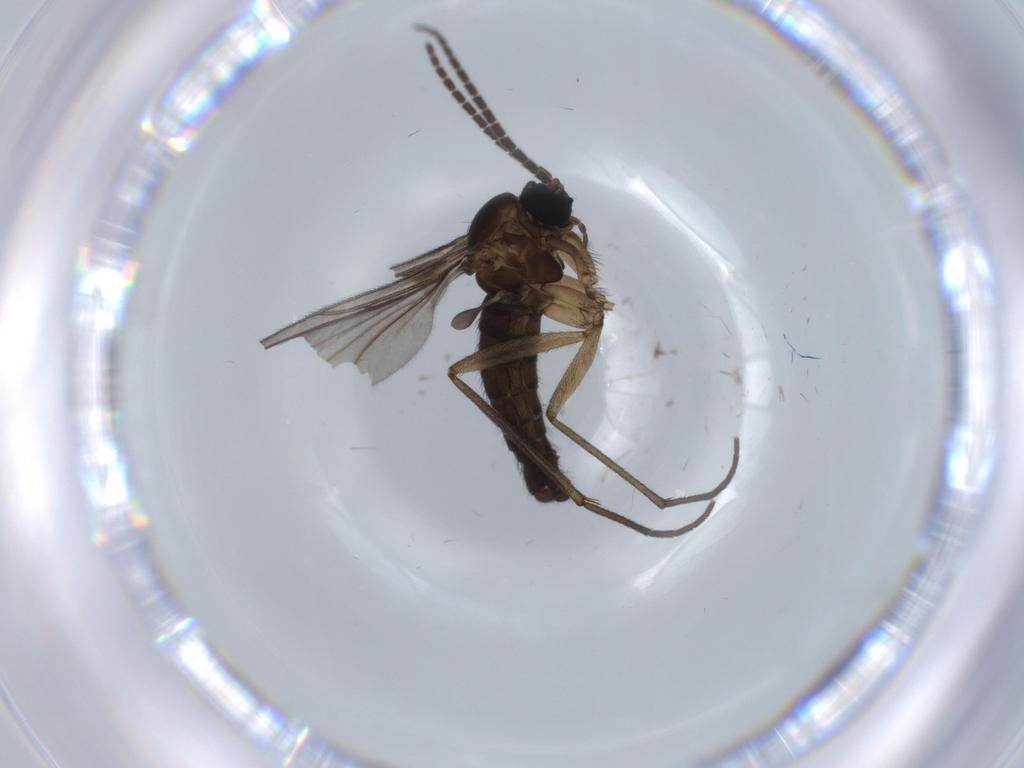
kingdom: Animalia
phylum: Arthropoda
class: Insecta
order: Diptera
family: Sciaridae
